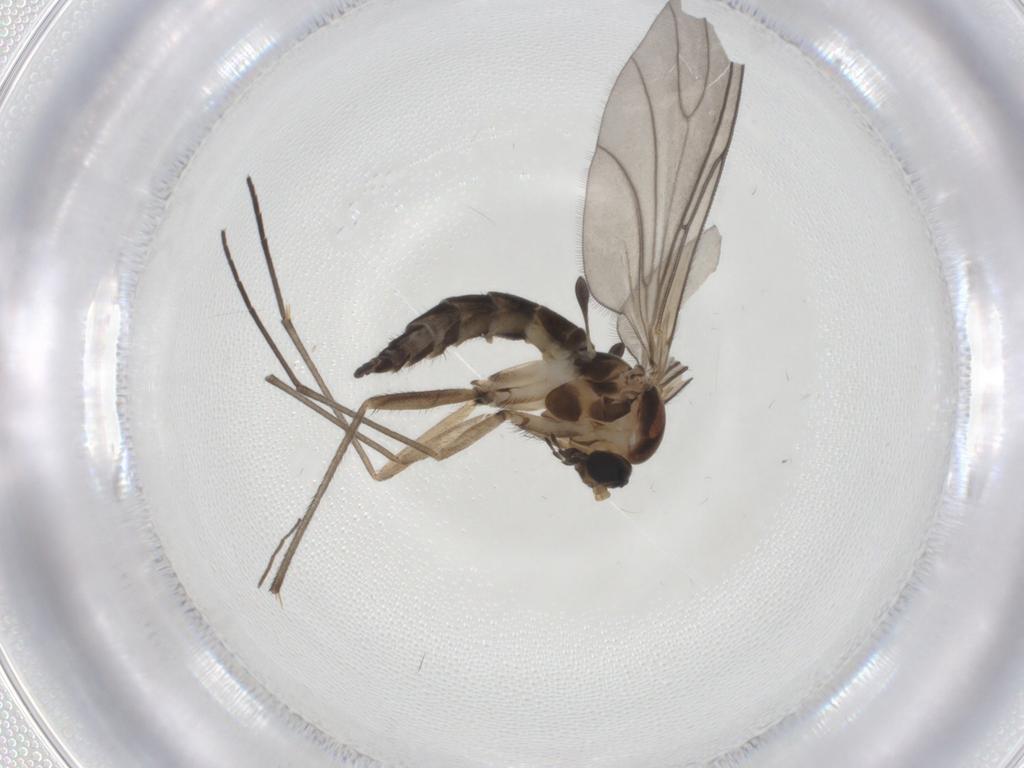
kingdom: Animalia
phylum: Arthropoda
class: Insecta
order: Diptera
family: Sciaridae
